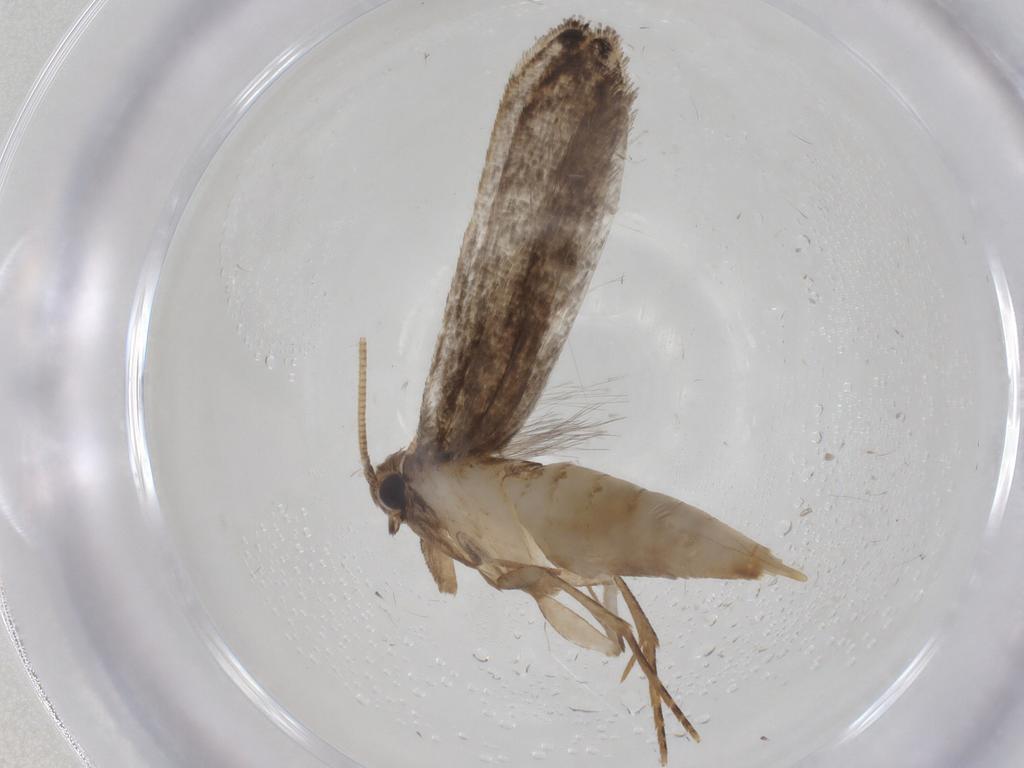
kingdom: Animalia
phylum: Arthropoda
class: Insecta
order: Lepidoptera
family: Tineidae
